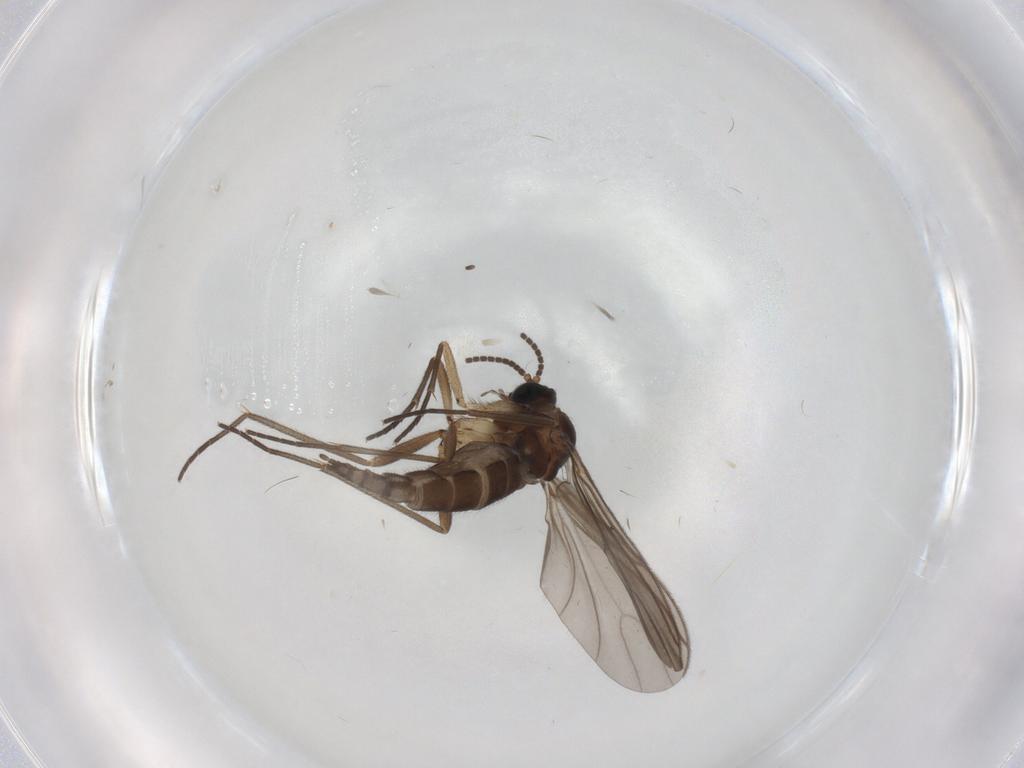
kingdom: Animalia
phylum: Arthropoda
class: Insecta
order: Diptera
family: Sciaridae
